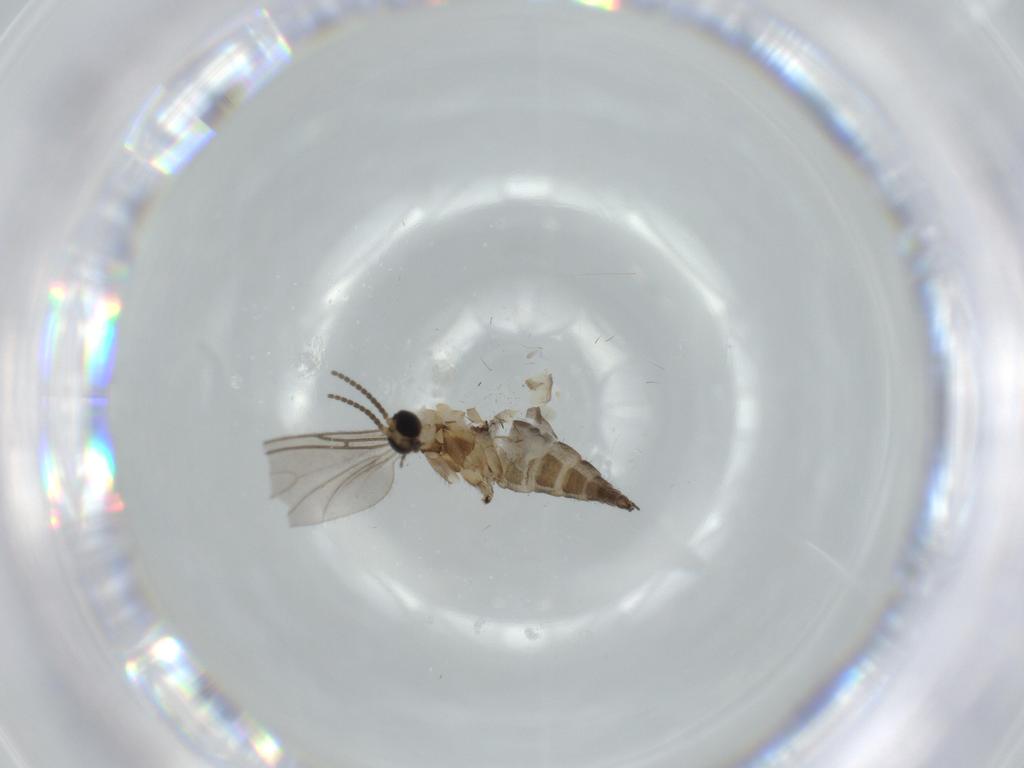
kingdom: Animalia
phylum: Arthropoda
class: Insecta
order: Diptera
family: Sciaridae
